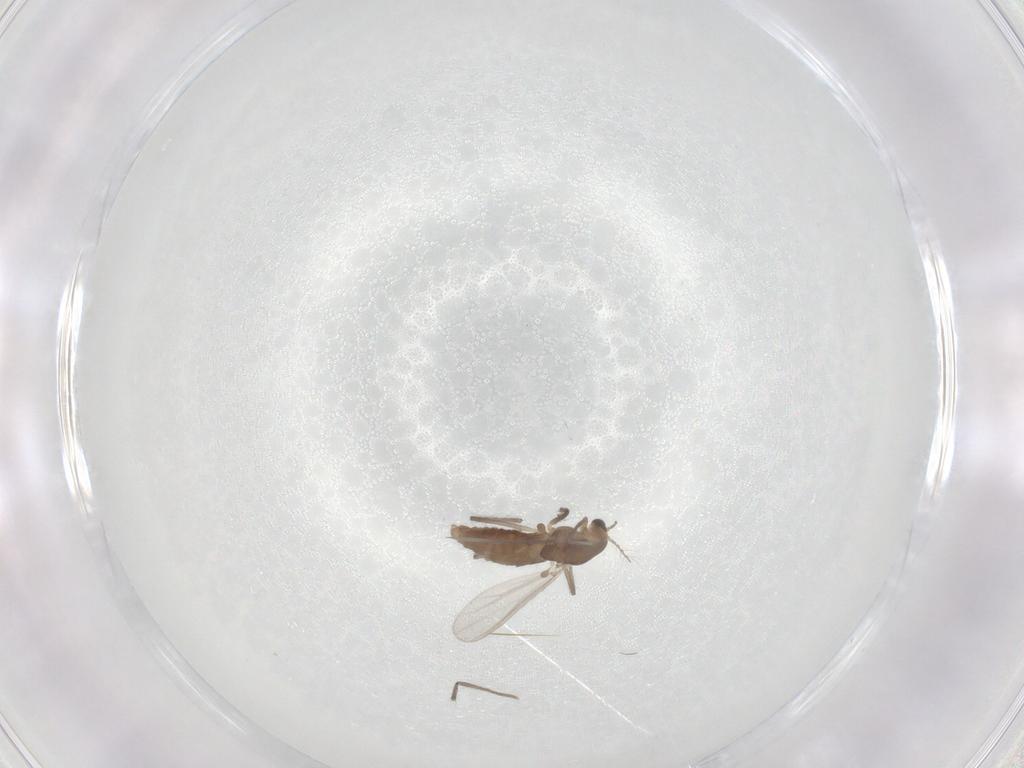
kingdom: Animalia
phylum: Arthropoda
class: Insecta
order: Diptera
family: Chironomidae
